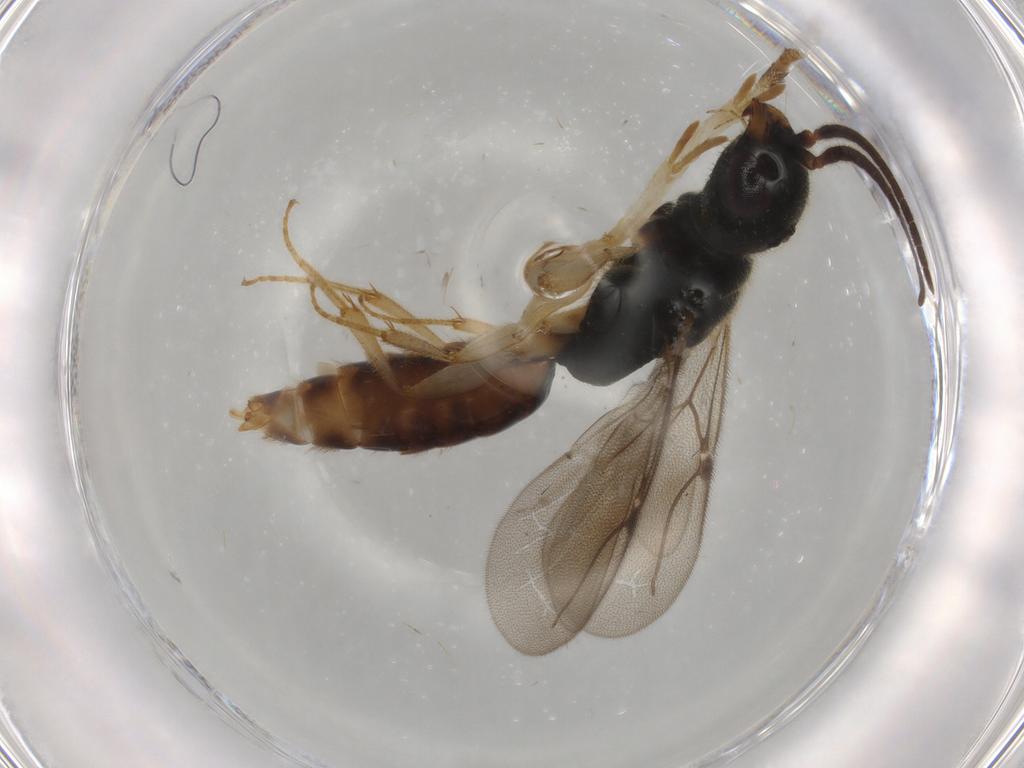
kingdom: Animalia
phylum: Arthropoda
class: Insecta
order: Hymenoptera
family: Bethylidae
